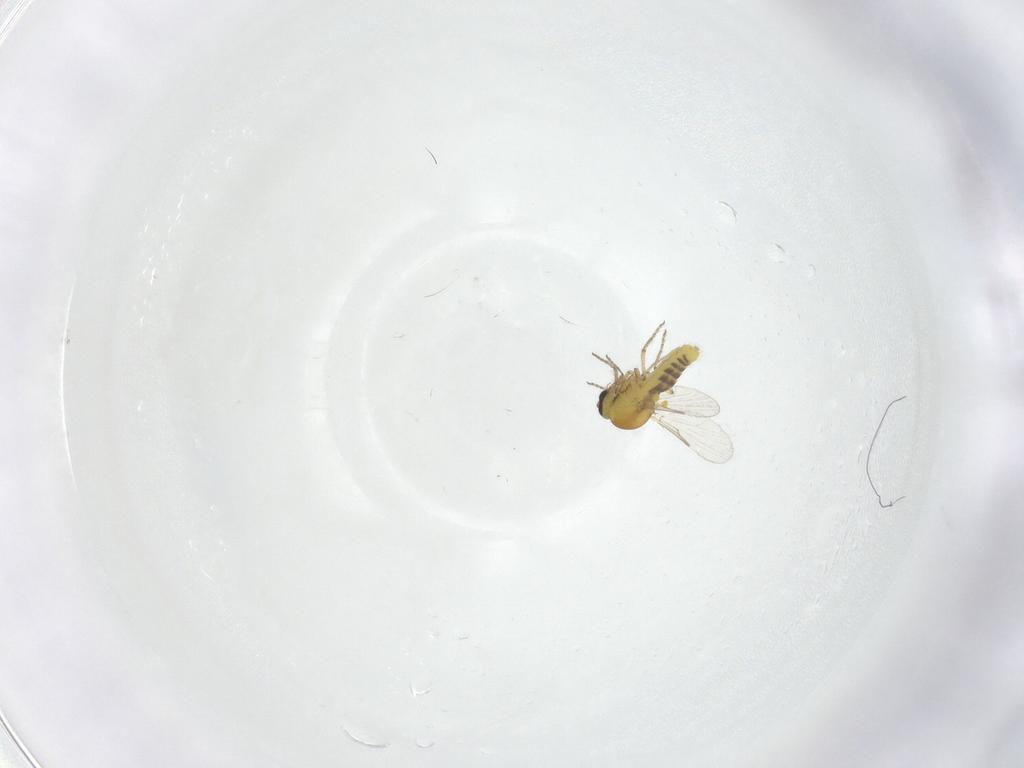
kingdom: Animalia
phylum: Arthropoda
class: Insecta
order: Diptera
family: Ceratopogonidae
